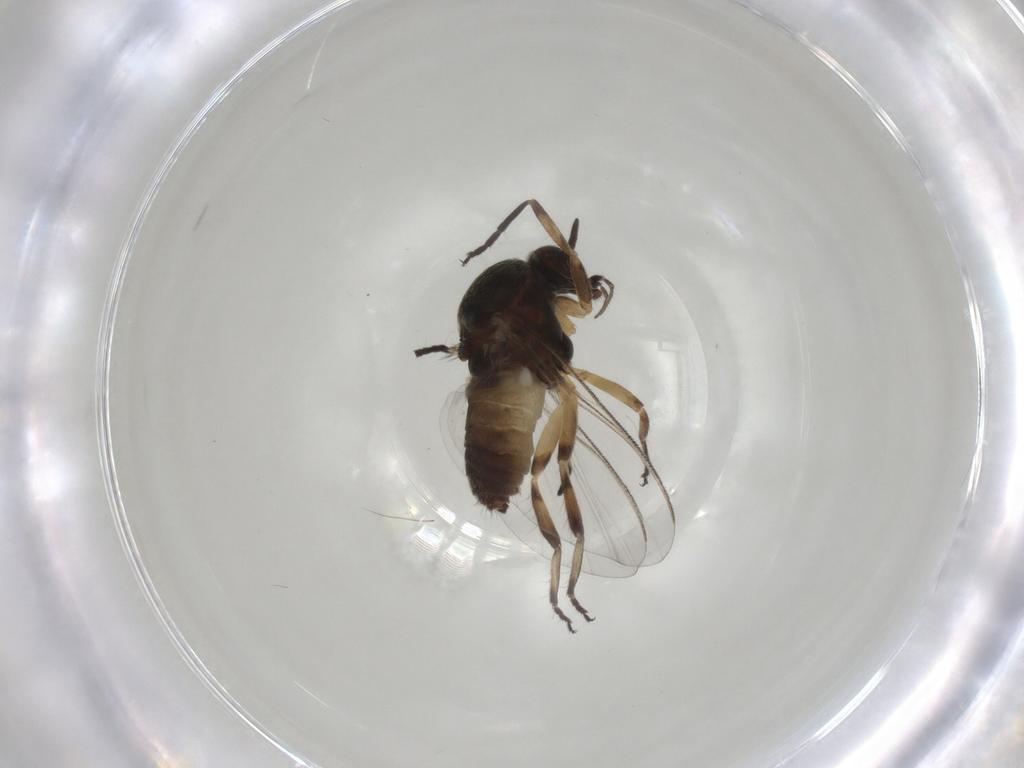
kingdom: Animalia
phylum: Arthropoda
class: Insecta
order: Diptera
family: Simuliidae
